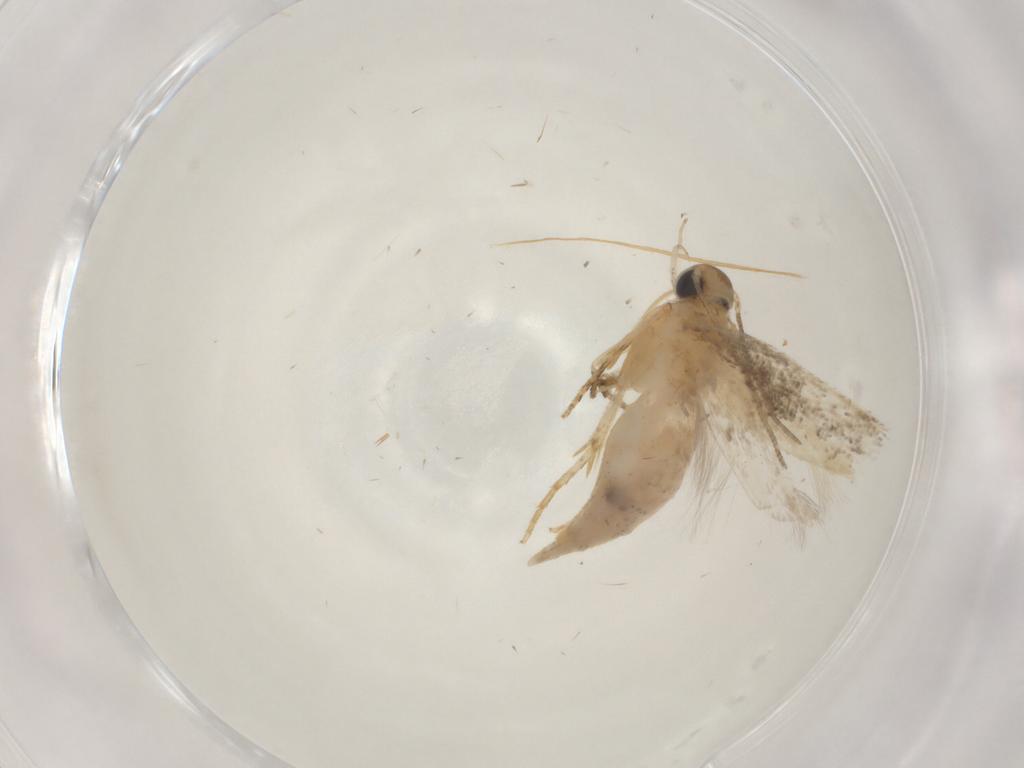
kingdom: Animalia
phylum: Arthropoda
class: Insecta
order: Lepidoptera
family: Gelechiidae
